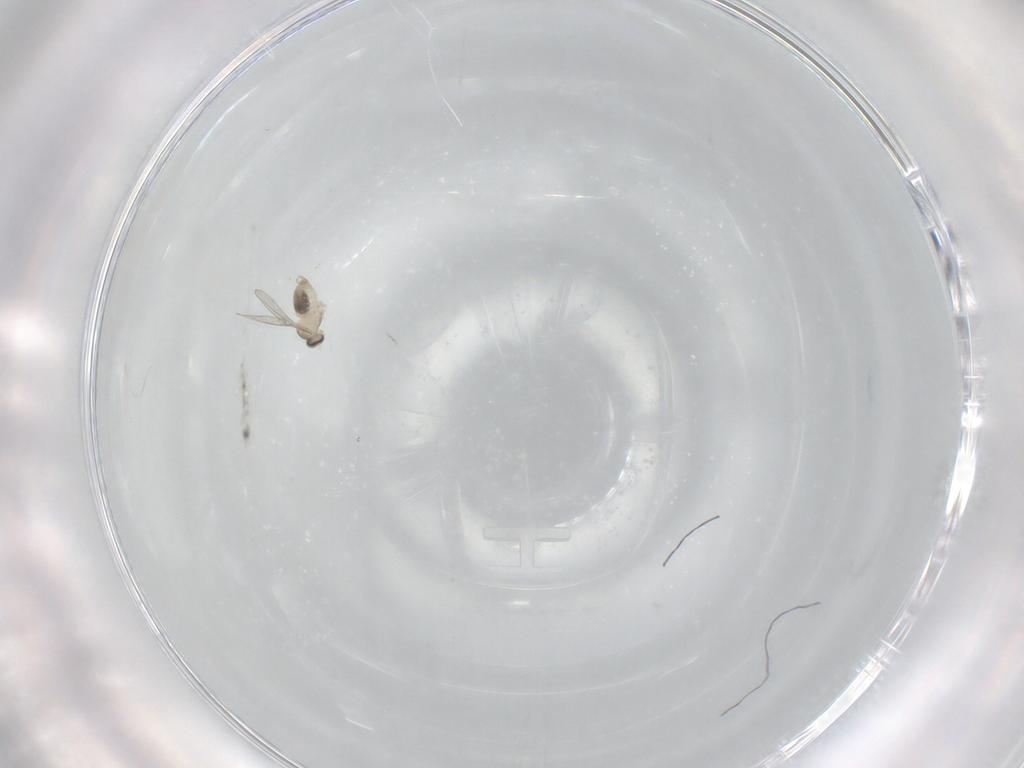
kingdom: Animalia
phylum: Arthropoda
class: Insecta
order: Diptera
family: Cecidomyiidae
